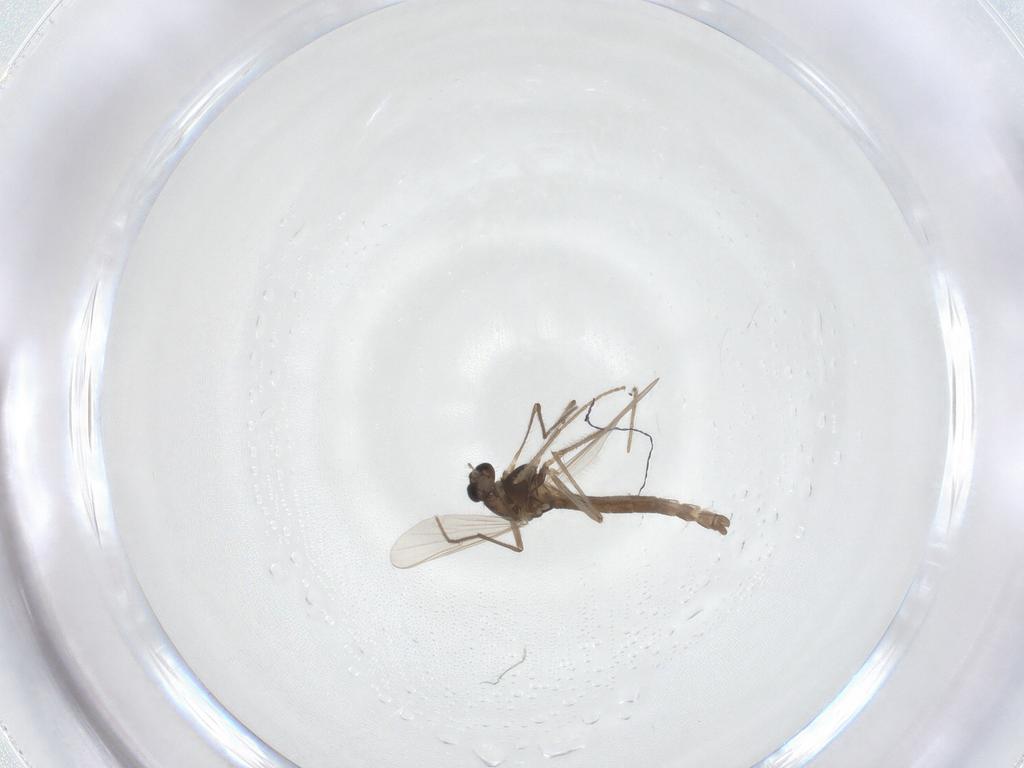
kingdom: Animalia
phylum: Arthropoda
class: Insecta
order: Diptera
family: Chironomidae
